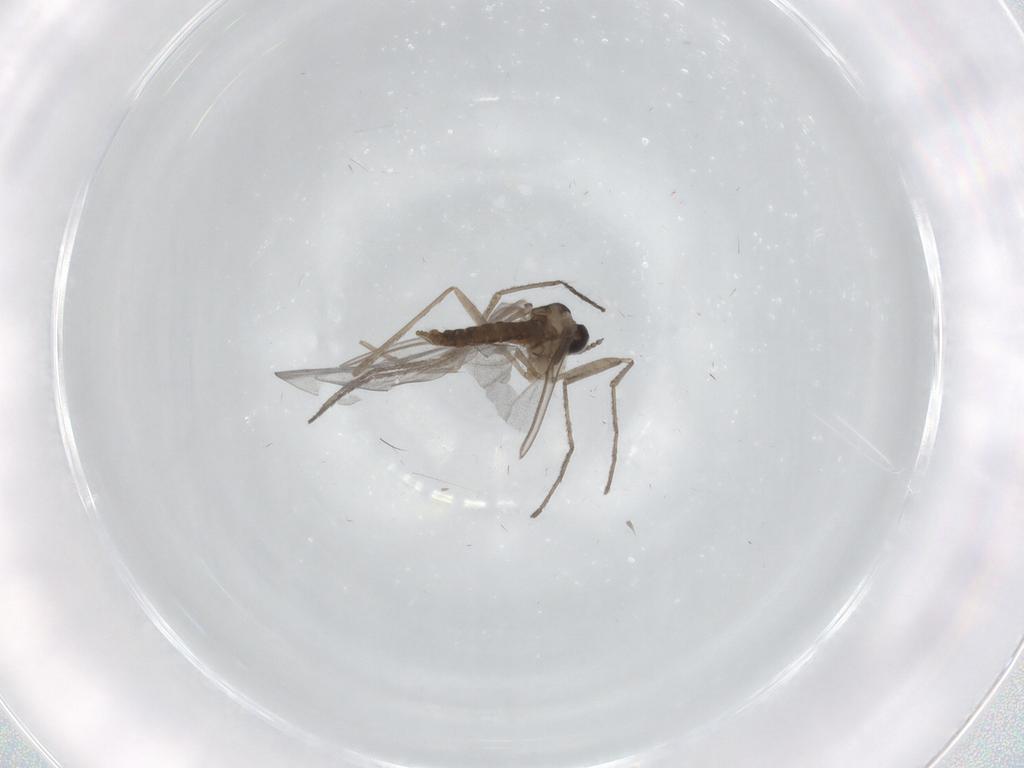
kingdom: Animalia
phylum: Arthropoda
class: Insecta
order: Diptera
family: Cecidomyiidae
